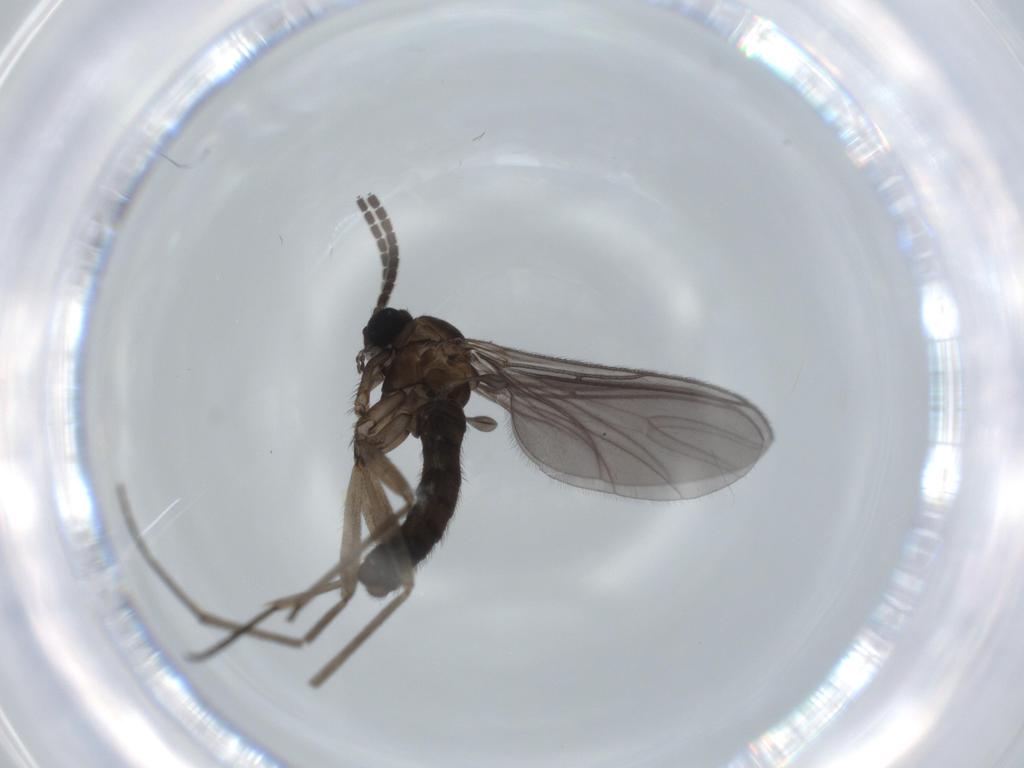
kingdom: Animalia
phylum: Arthropoda
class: Insecta
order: Diptera
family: Sciaridae
